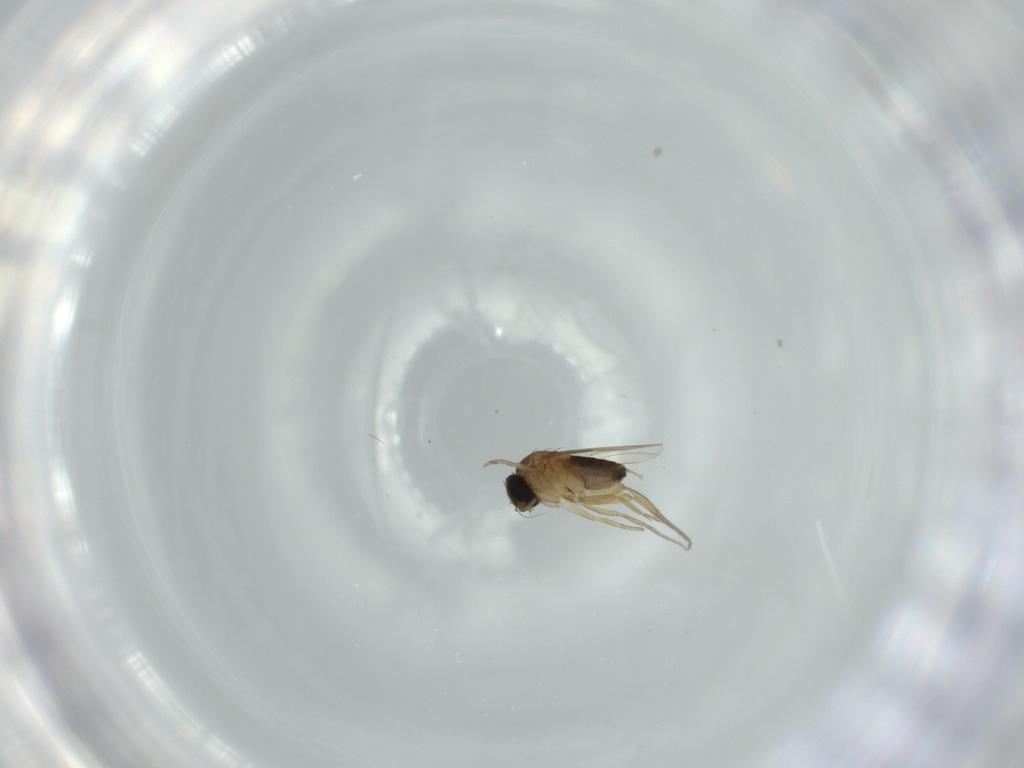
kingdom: Animalia
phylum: Arthropoda
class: Insecta
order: Diptera
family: Phoridae
